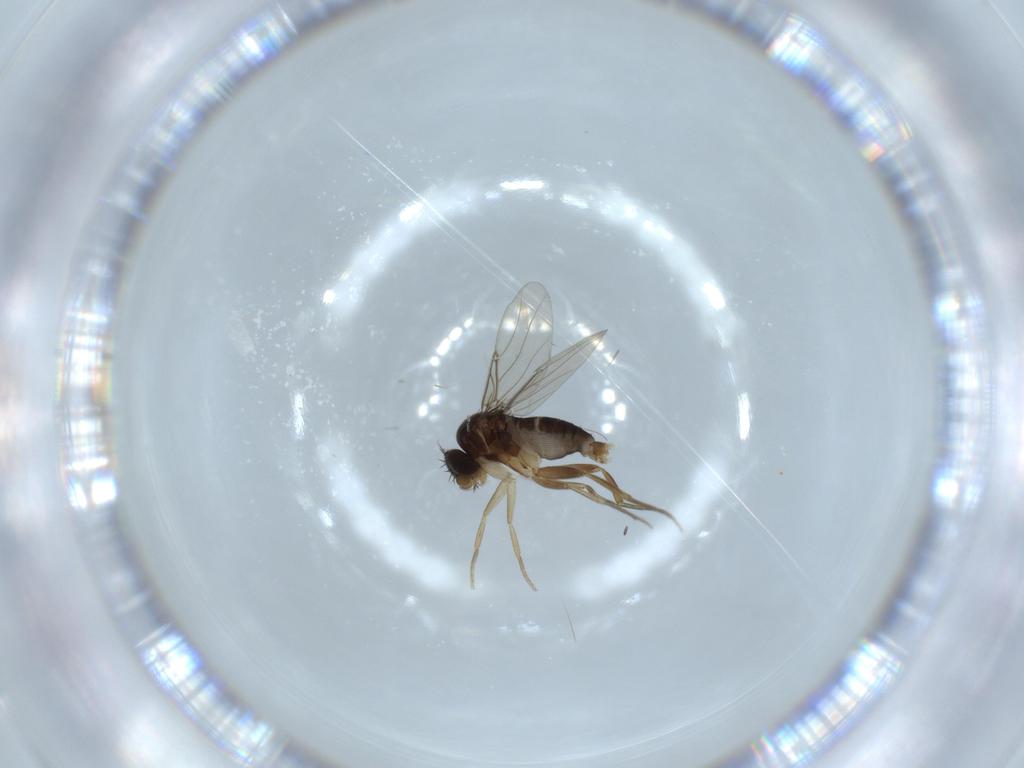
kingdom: Animalia
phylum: Arthropoda
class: Insecta
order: Diptera
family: Phoridae
